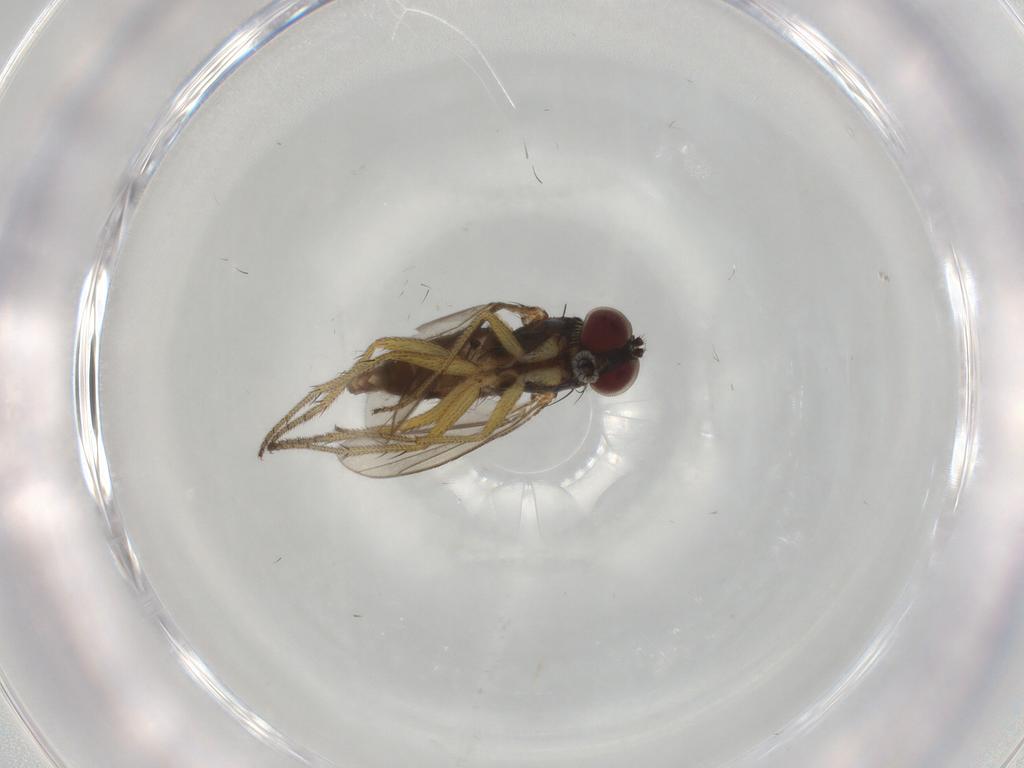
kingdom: Animalia
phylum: Arthropoda
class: Insecta
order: Diptera
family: Dolichopodidae
